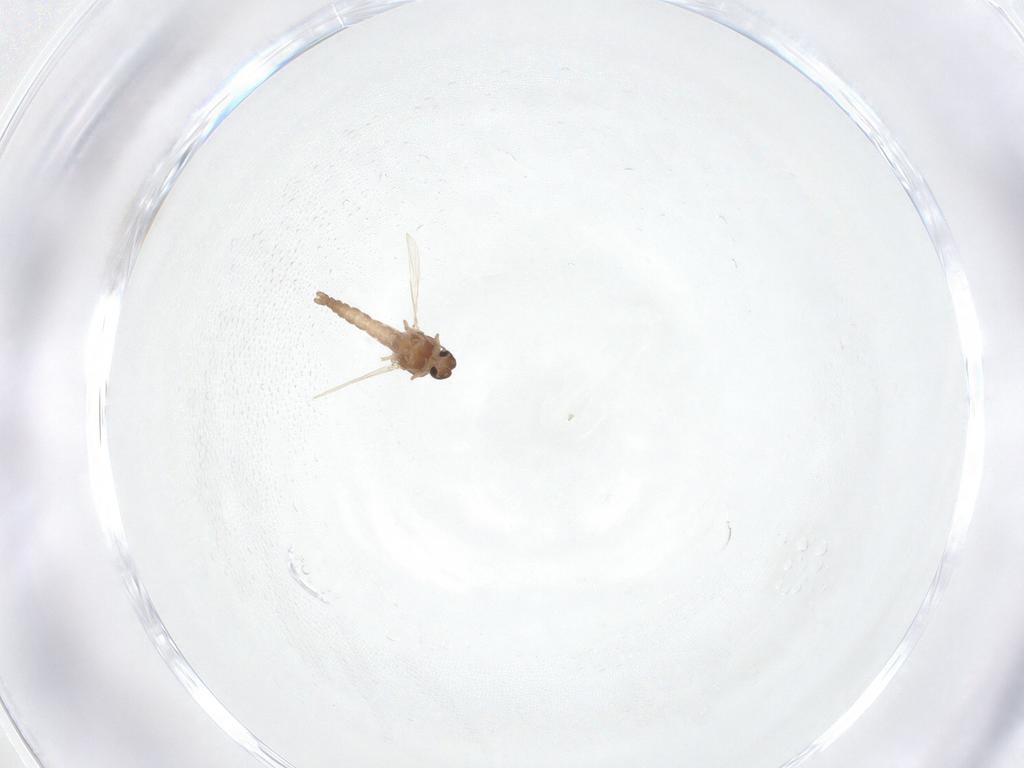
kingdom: Animalia
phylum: Arthropoda
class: Insecta
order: Diptera
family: Ceratopogonidae
